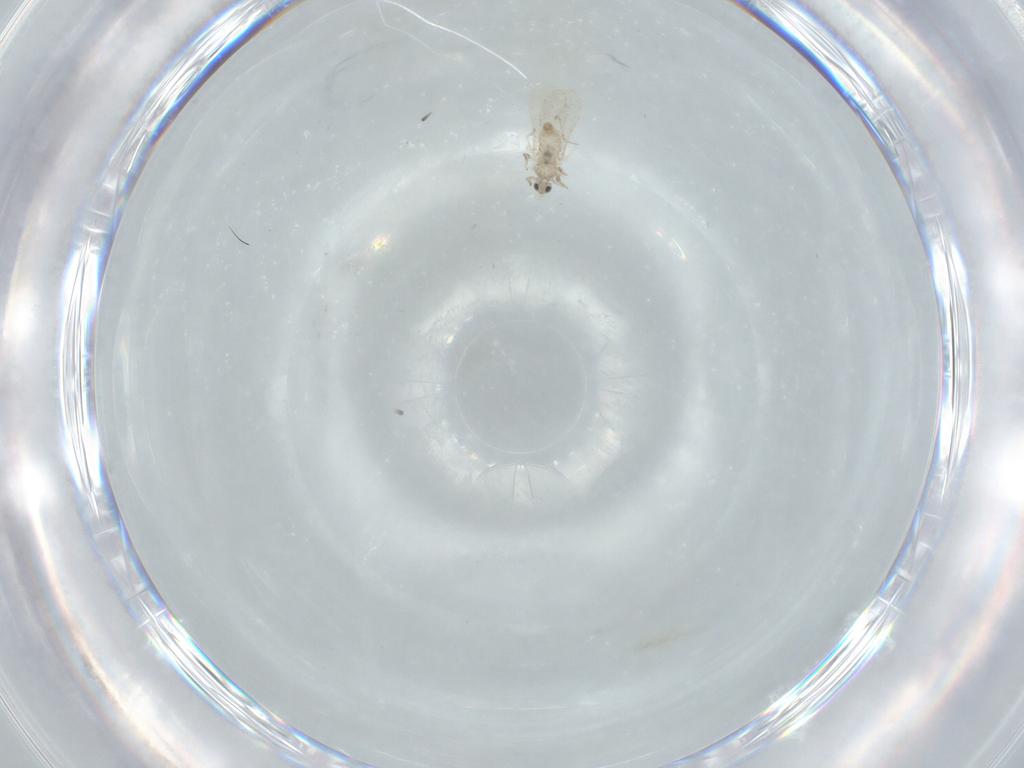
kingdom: Animalia
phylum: Arthropoda
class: Insecta
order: Diptera
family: Cecidomyiidae
